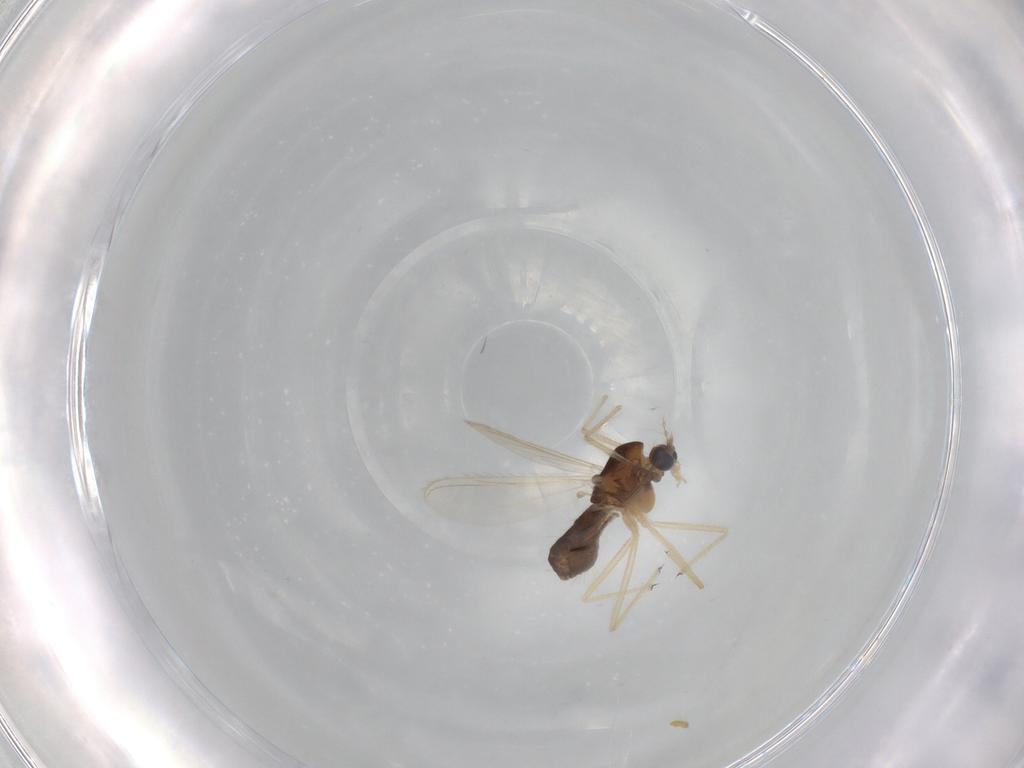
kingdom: Animalia
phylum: Arthropoda
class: Insecta
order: Diptera
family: Chironomidae
